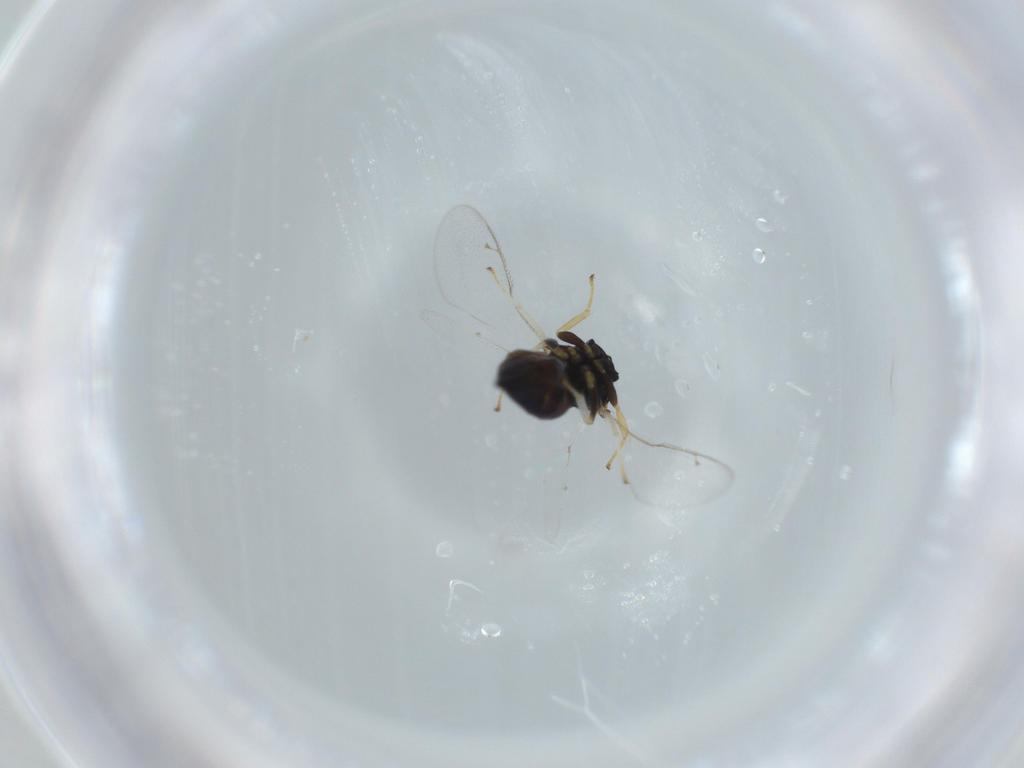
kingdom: Animalia
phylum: Arthropoda
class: Insecta
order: Hymenoptera
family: Pteromalidae
